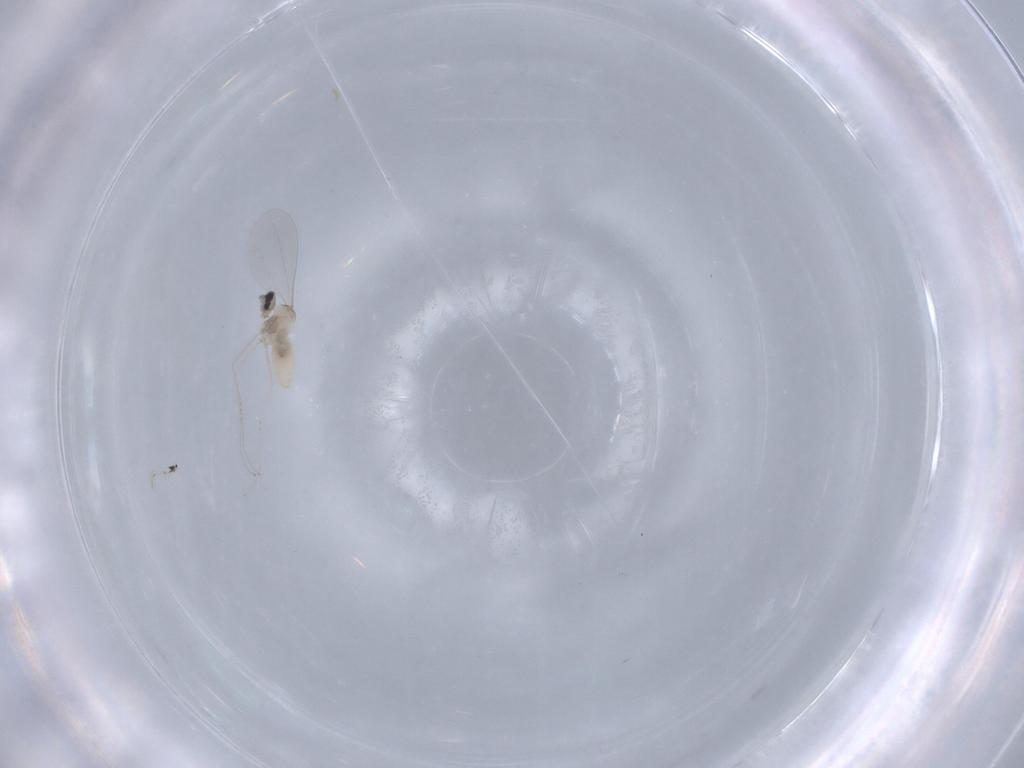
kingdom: Animalia
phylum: Arthropoda
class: Insecta
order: Diptera
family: Cecidomyiidae
